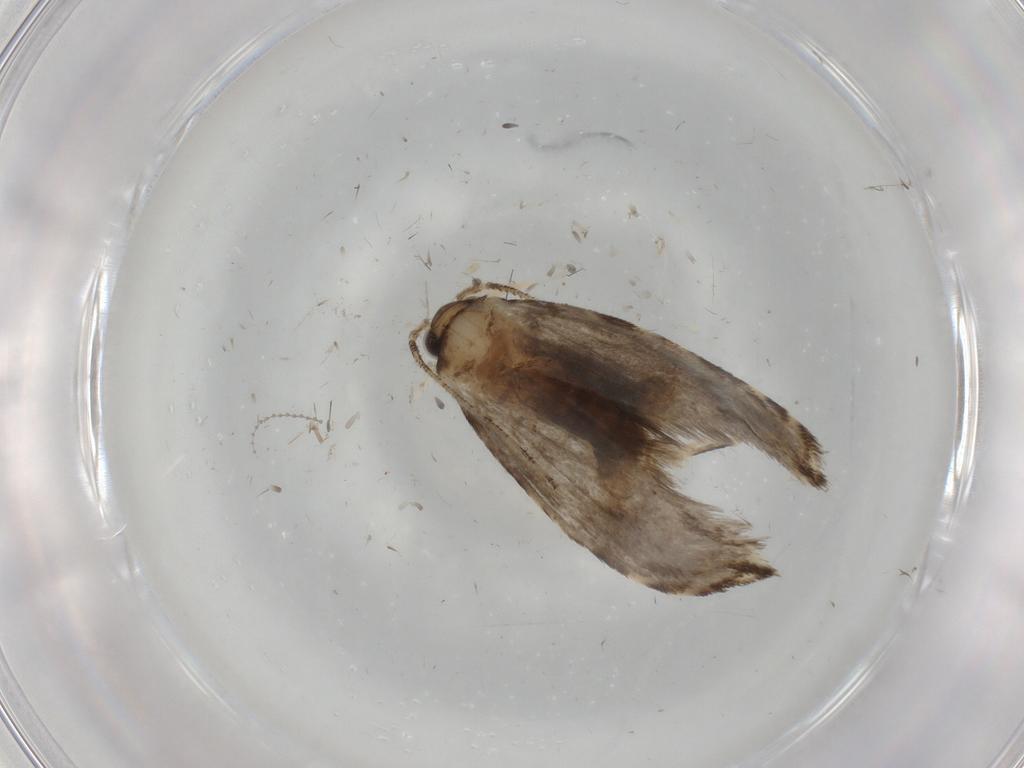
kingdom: Animalia
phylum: Arthropoda
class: Insecta
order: Lepidoptera
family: Tineidae
